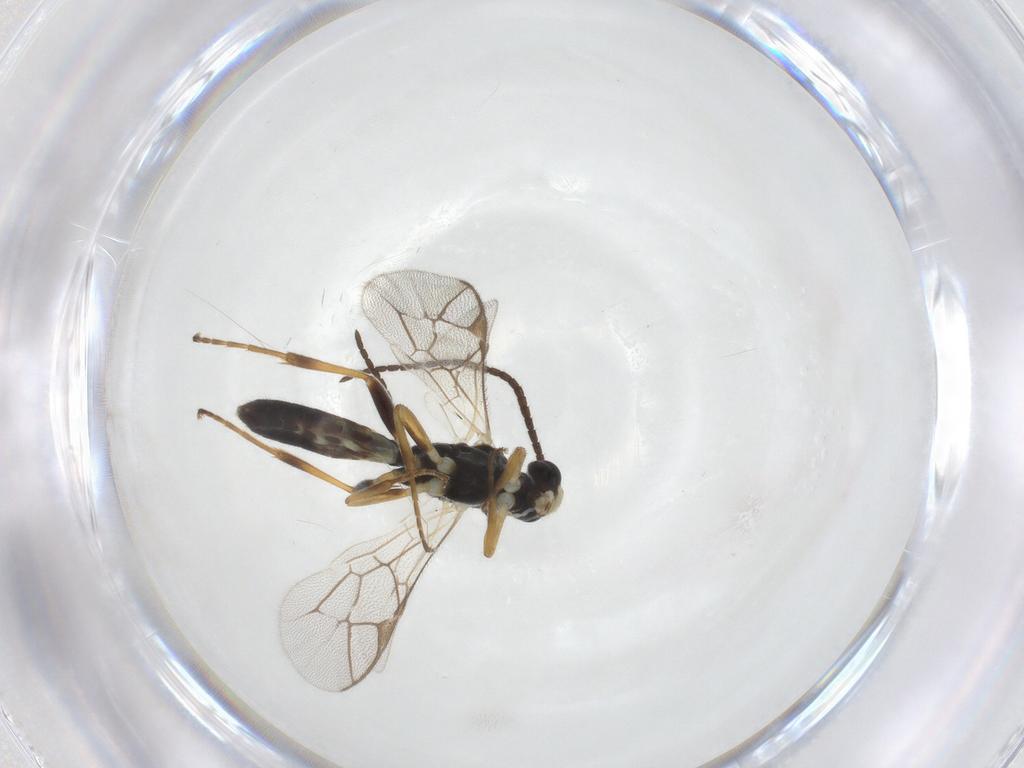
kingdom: Animalia
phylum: Arthropoda
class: Insecta
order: Hymenoptera
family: Ichneumonidae
